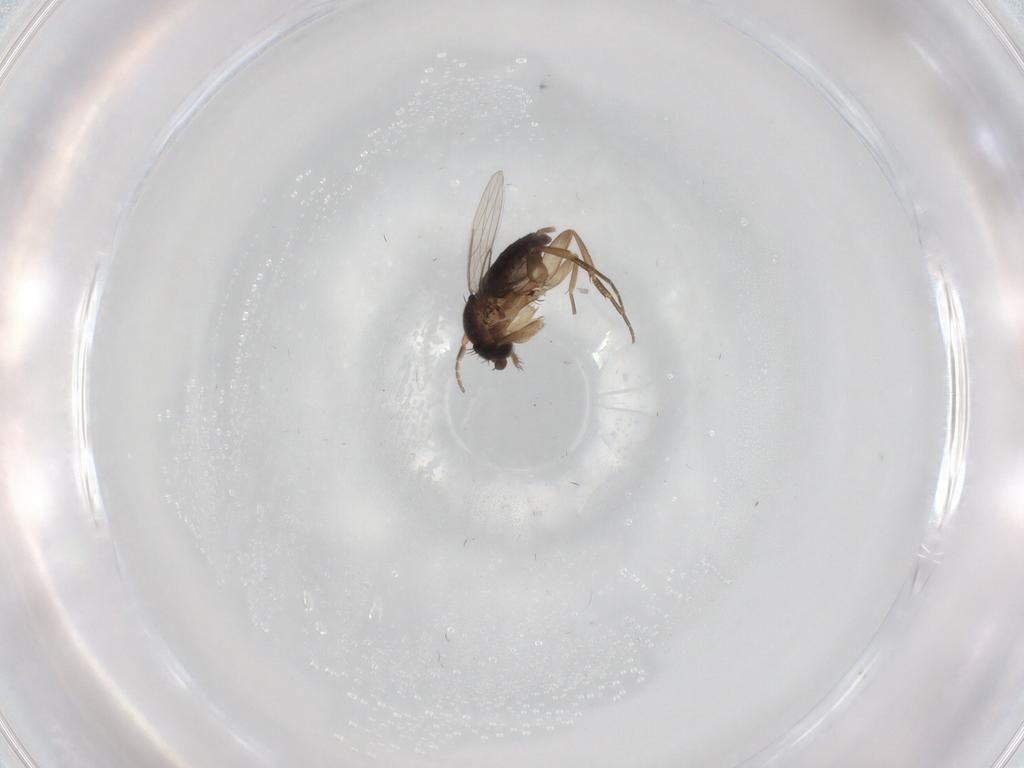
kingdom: Animalia
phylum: Arthropoda
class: Insecta
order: Diptera
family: Phoridae
